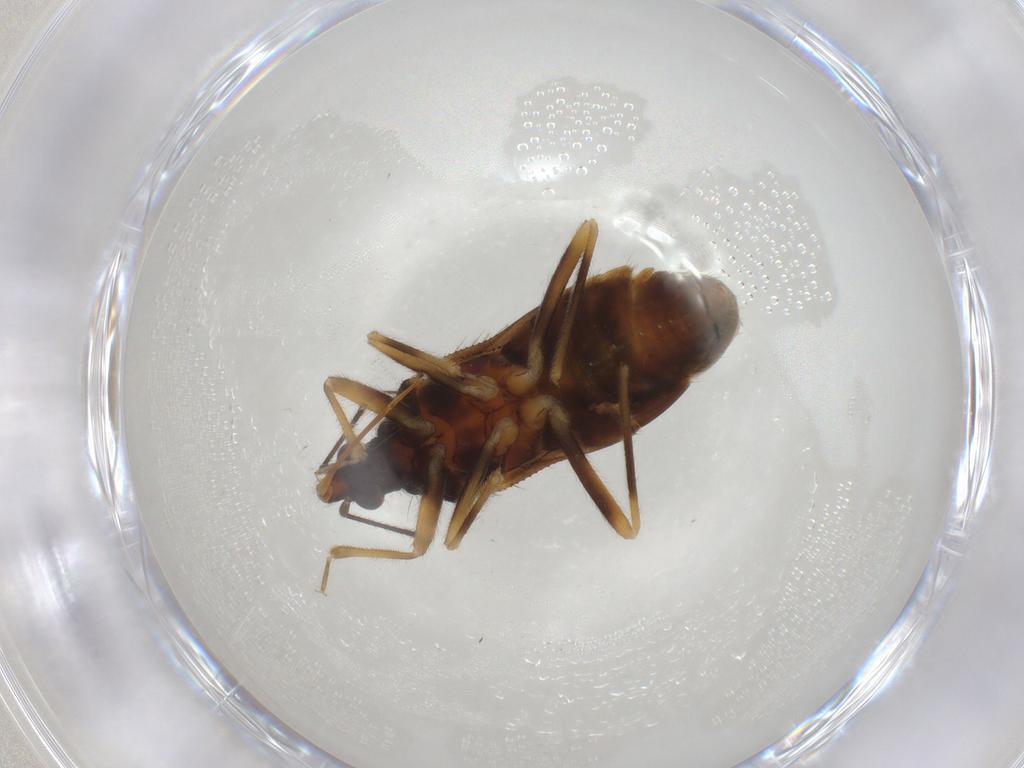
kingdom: Animalia
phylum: Arthropoda
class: Insecta
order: Hemiptera
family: Anthocoridae
